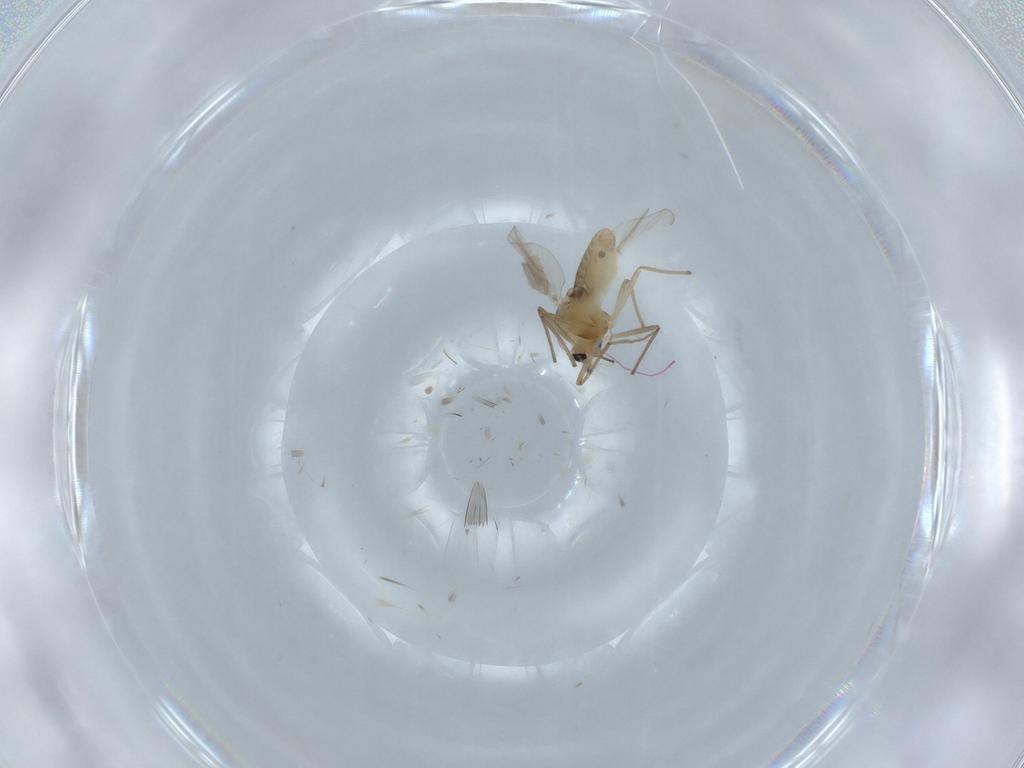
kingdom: Animalia
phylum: Arthropoda
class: Insecta
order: Diptera
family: Chironomidae
